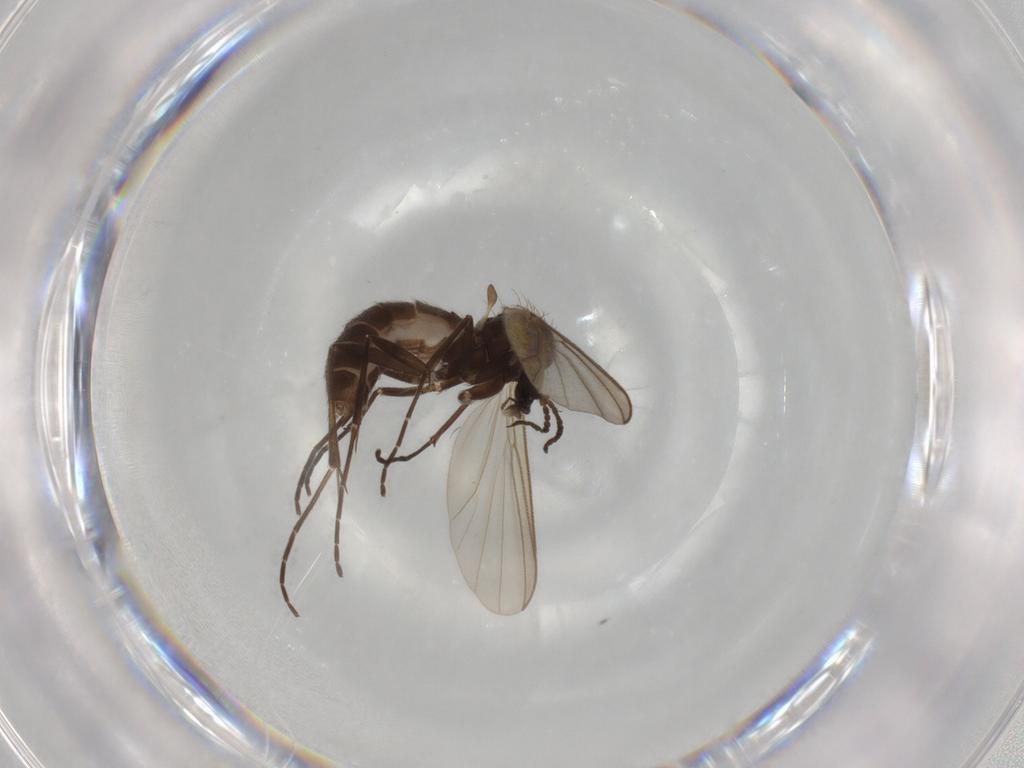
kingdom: Animalia
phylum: Arthropoda
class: Insecta
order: Diptera
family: Mycetophilidae
